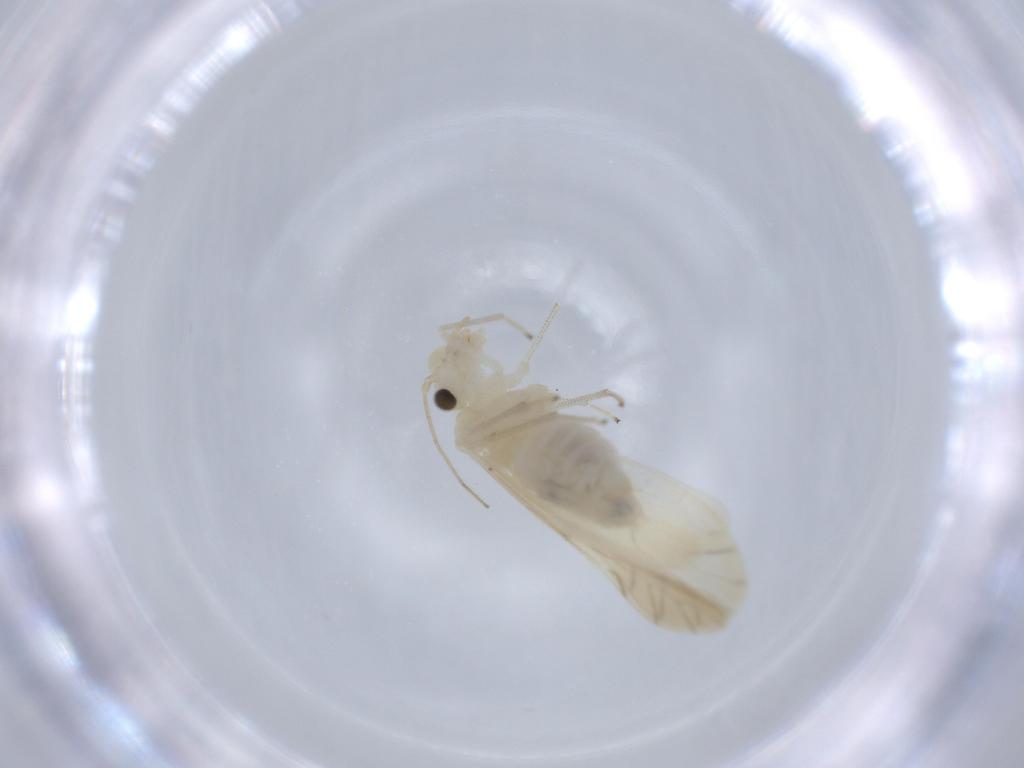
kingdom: Animalia
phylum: Arthropoda
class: Insecta
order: Psocodea
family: Caeciliusidae
